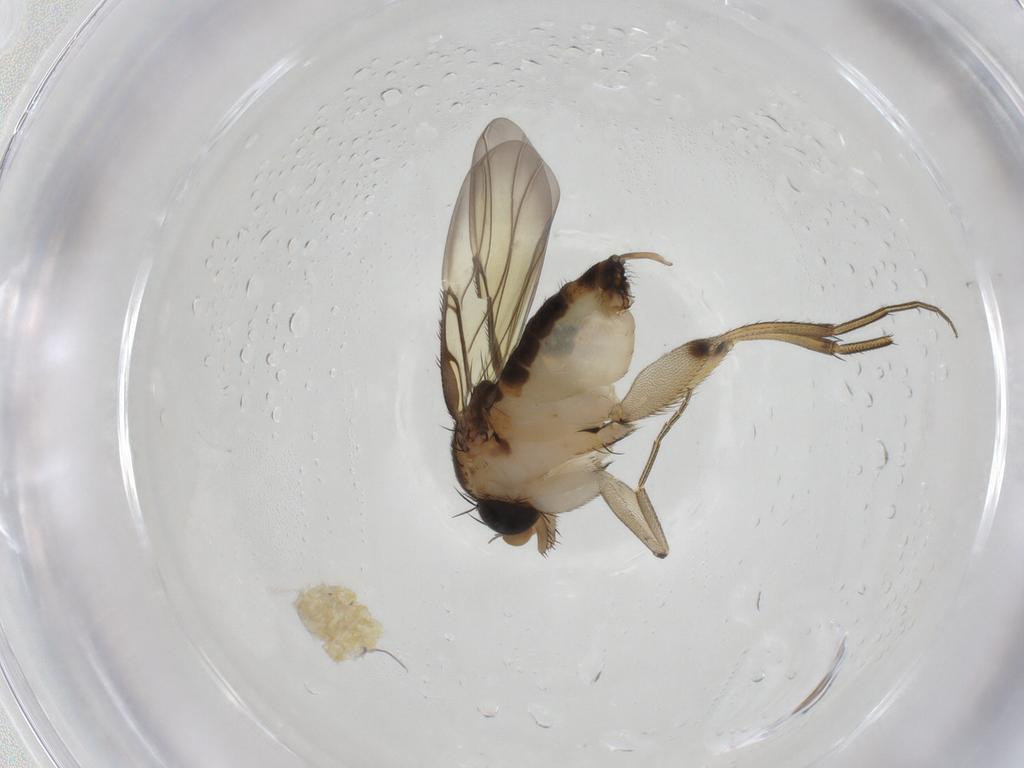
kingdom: Animalia
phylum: Arthropoda
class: Insecta
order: Diptera
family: Phoridae
